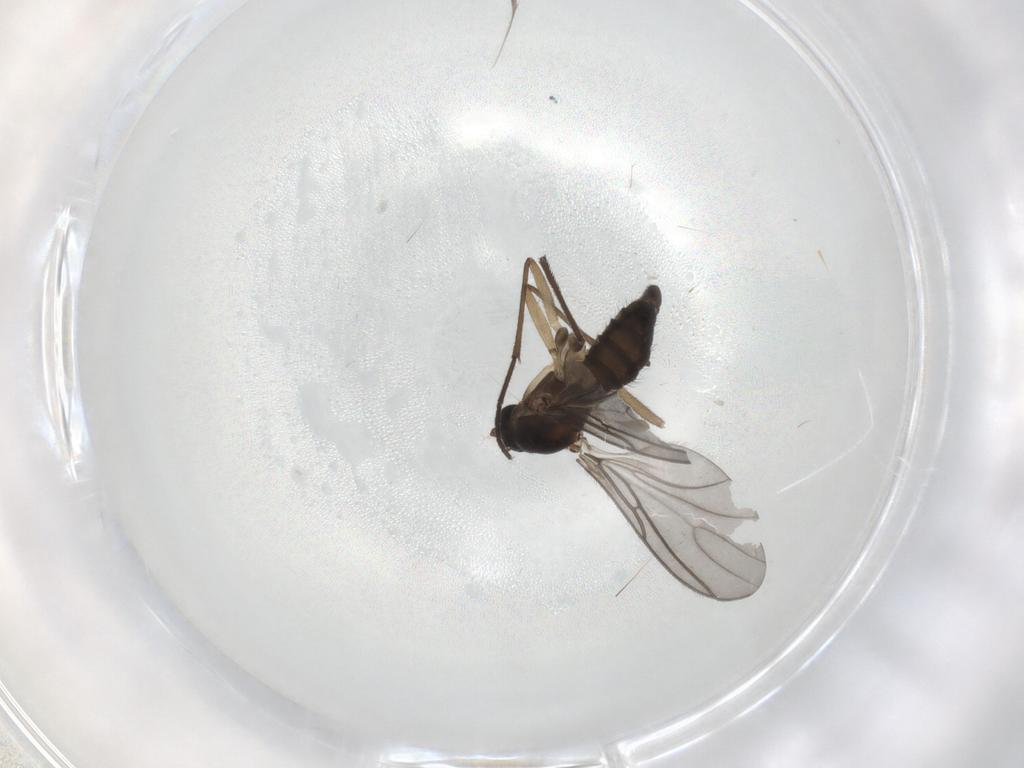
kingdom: Animalia
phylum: Arthropoda
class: Insecta
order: Diptera
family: Sciaridae
